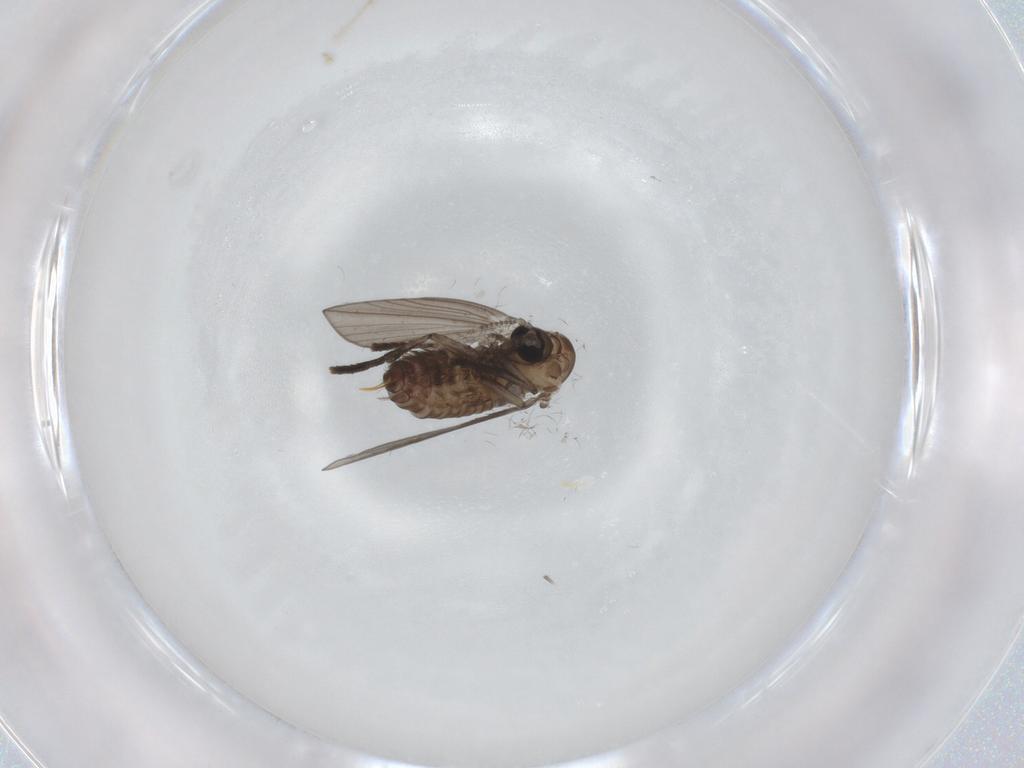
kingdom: Animalia
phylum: Arthropoda
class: Insecta
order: Diptera
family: Psychodidae
